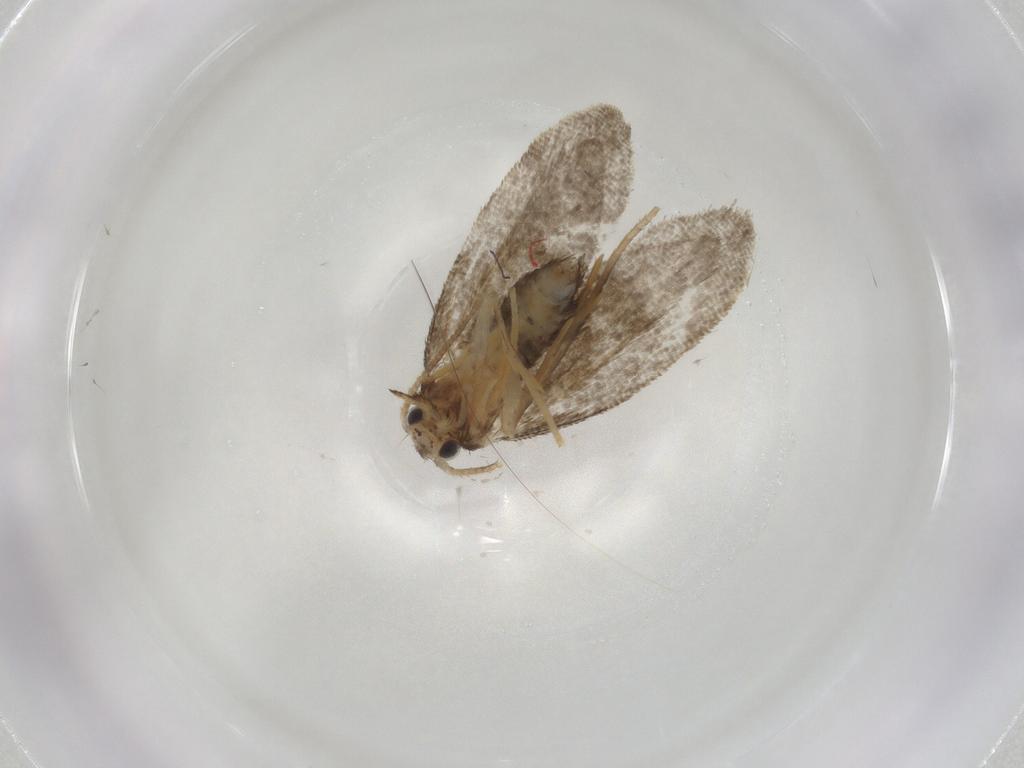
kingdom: Animalia
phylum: Arthropoda
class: Insecta
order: Lepidoptera
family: Psychidae
